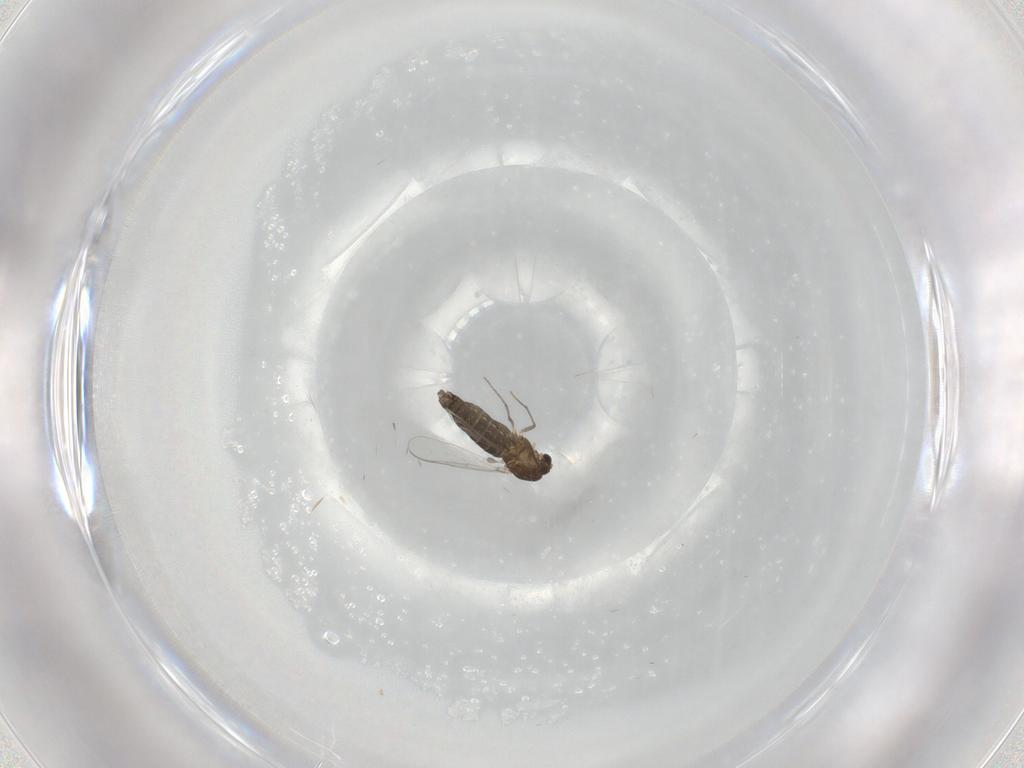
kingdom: Animalia
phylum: Arthropoda
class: Insecta
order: Diptera
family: Chironomidae
